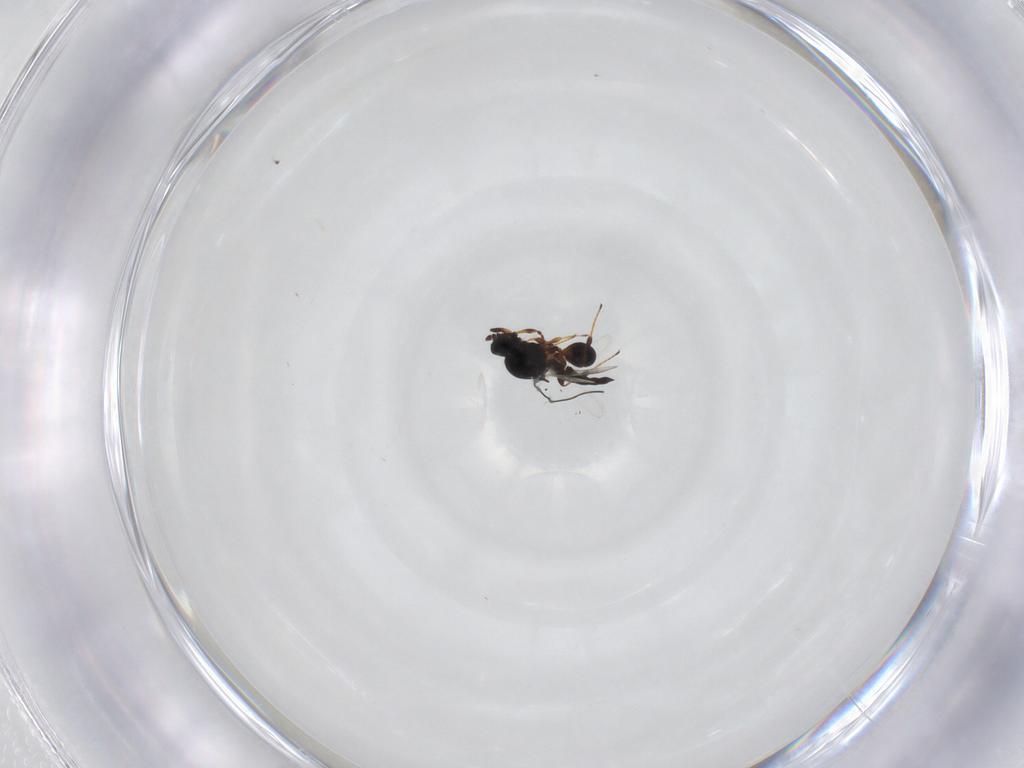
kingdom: Animalia
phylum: Arthropoda
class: Insecta
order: Hymenoptera
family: Platygastridae
